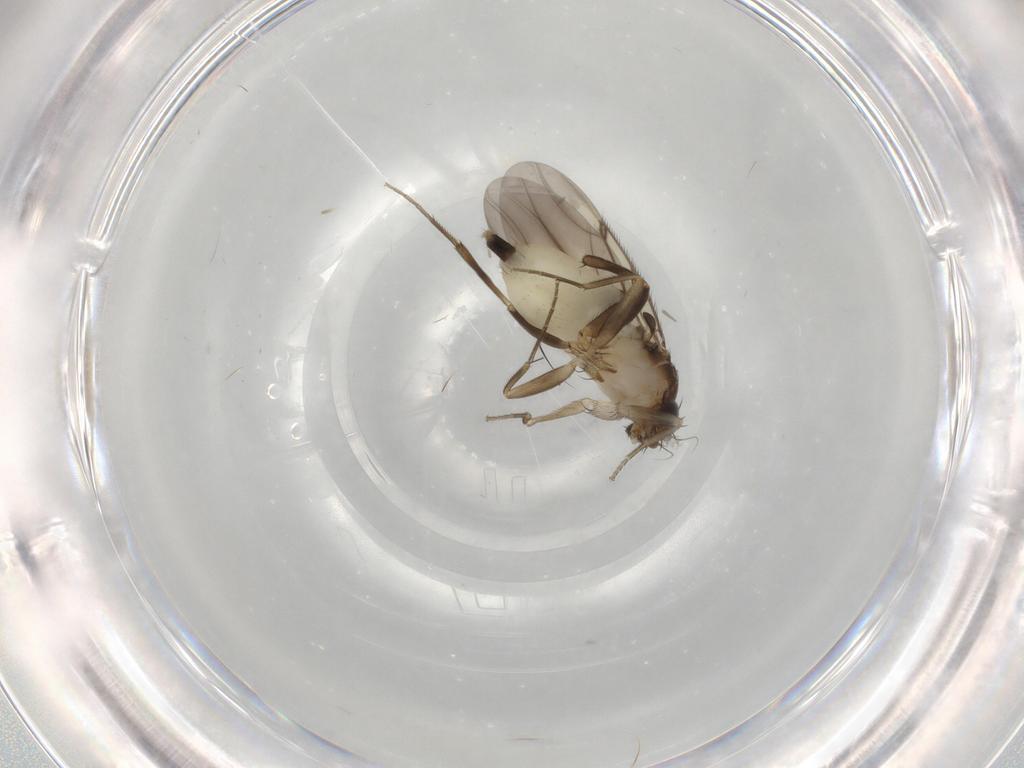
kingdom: Animalia
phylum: Arthropoda
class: Insecta
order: Diptera
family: Phoridae
